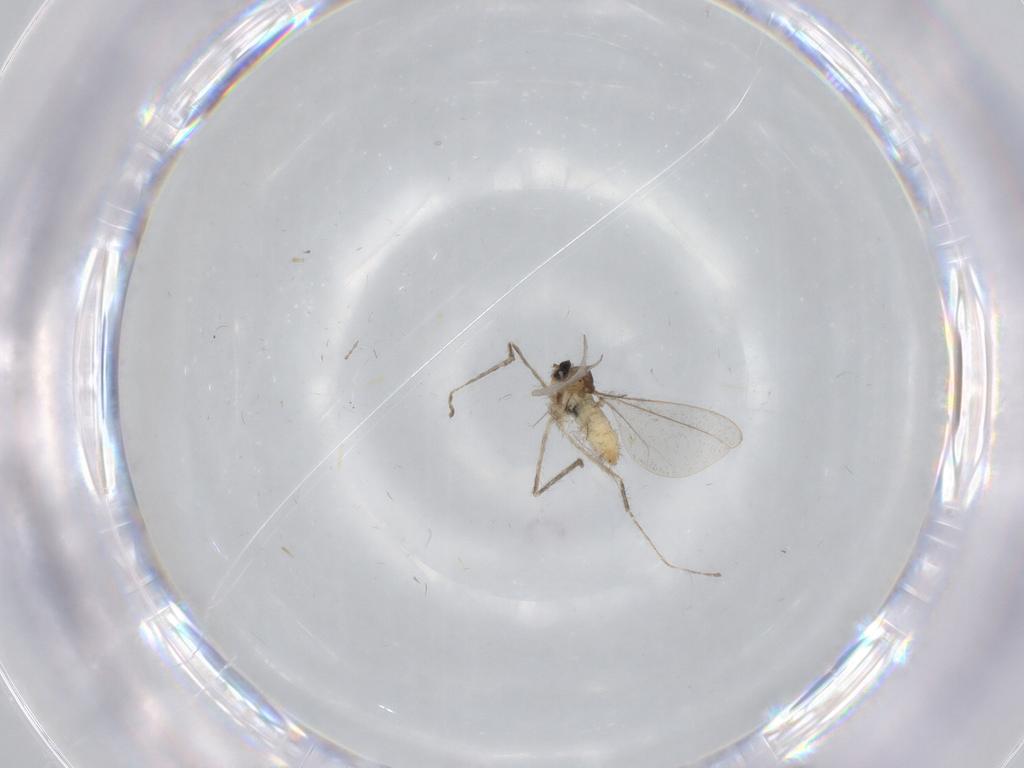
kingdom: Animalia
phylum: Arthropoda
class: Insecta
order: Diptera
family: Cecidomyiidae
